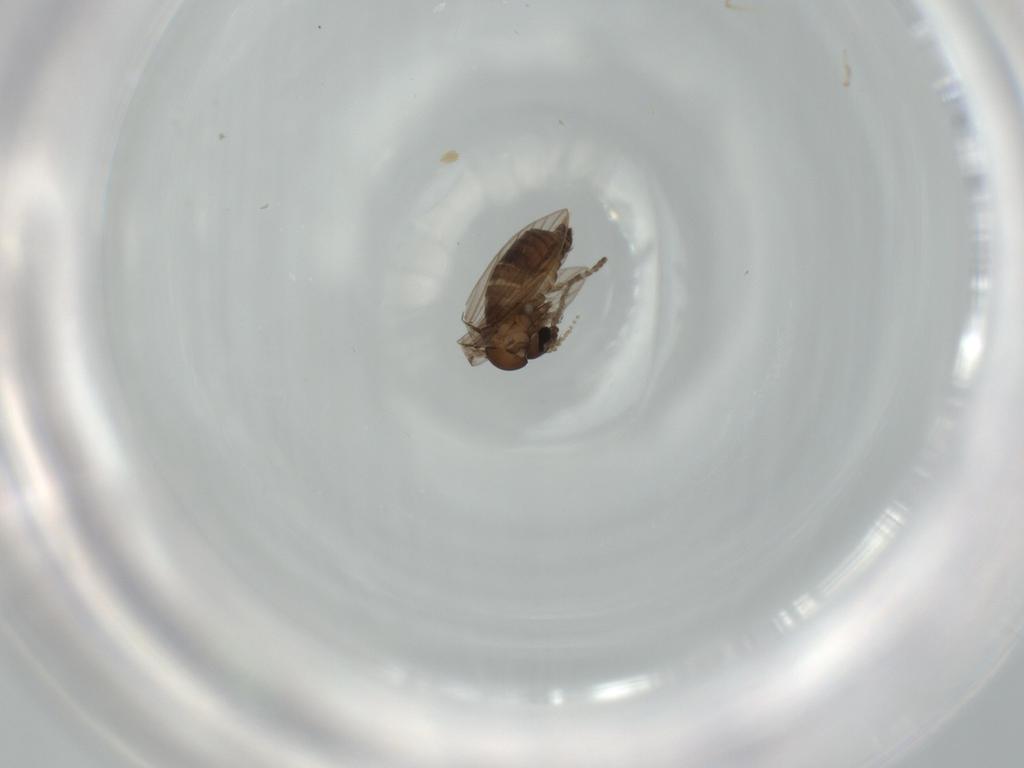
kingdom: Animalia
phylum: Arthropoda
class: Insecta
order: Diptera
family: Psychodidae
